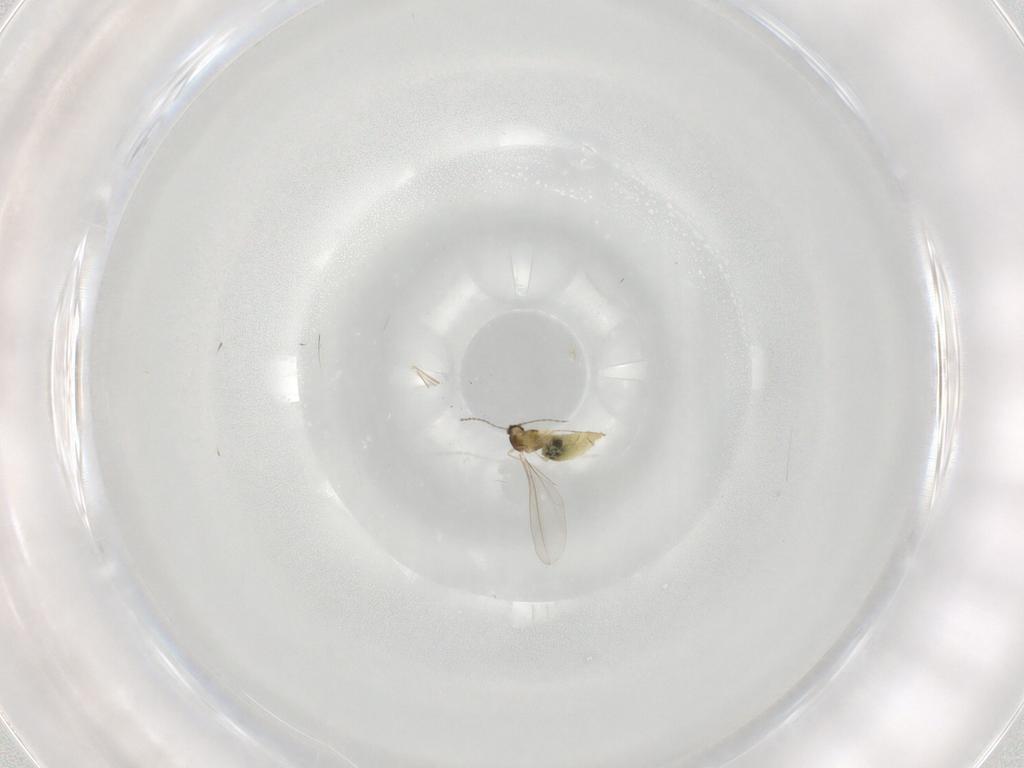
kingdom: Animalia
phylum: Arthropoda
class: Insecta
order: Diptera
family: Cecidomyiidae
